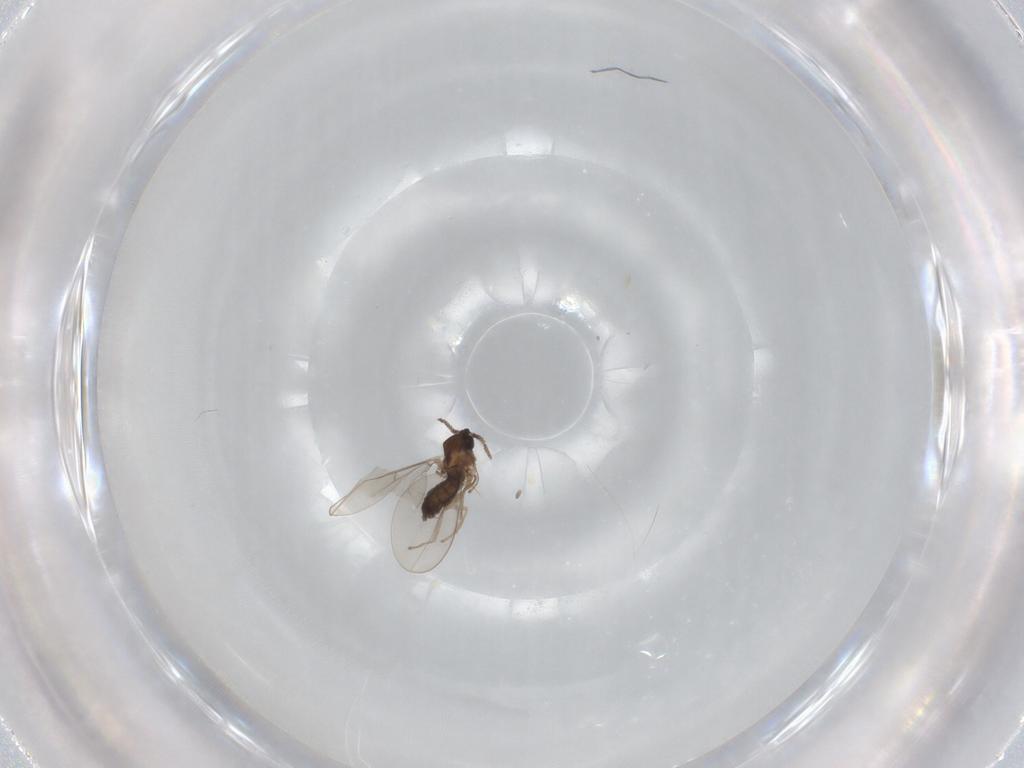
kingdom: Animalia
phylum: Arthropoda
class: Insecta
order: Diptera
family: Cecidomyiidae
